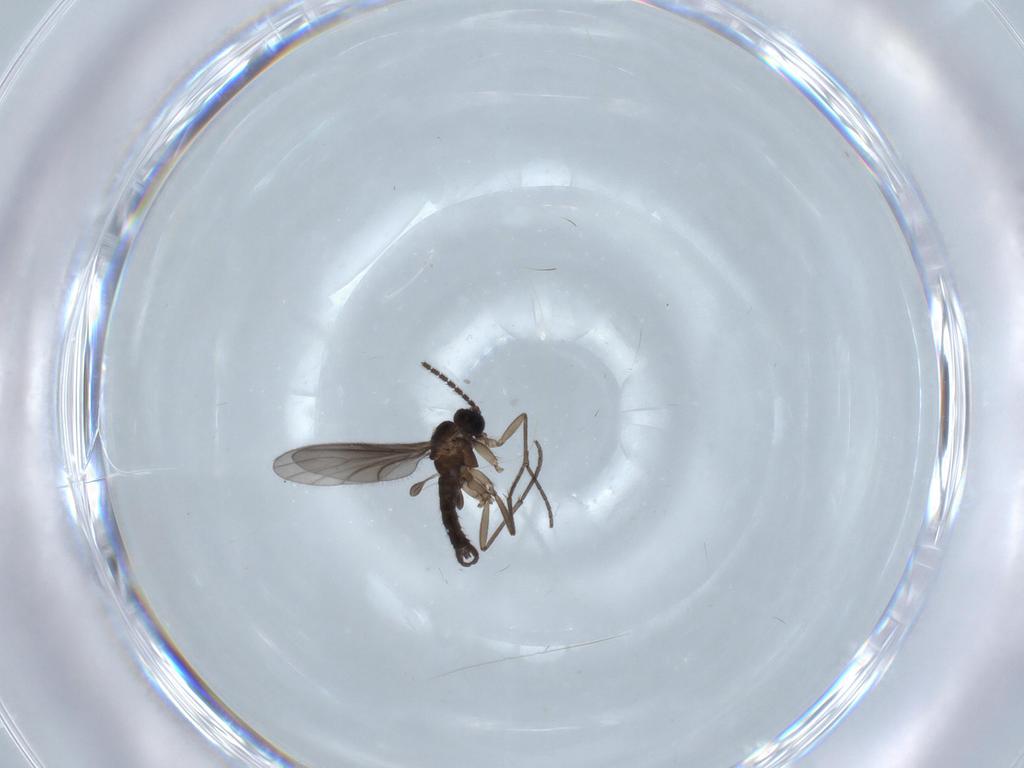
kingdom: Animalia
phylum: Arthropoda
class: Insecta
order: Diptera
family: Sciaridae
